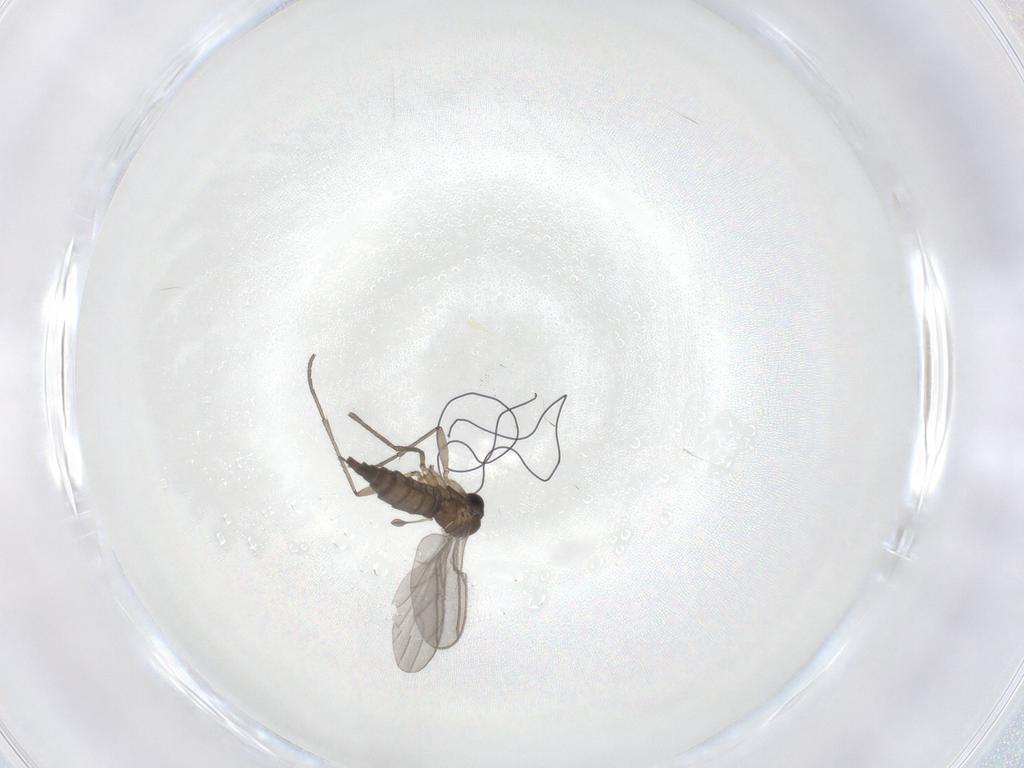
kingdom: Animalia
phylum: Arthropoda
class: Insecta
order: Diptera
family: Sciaridae
